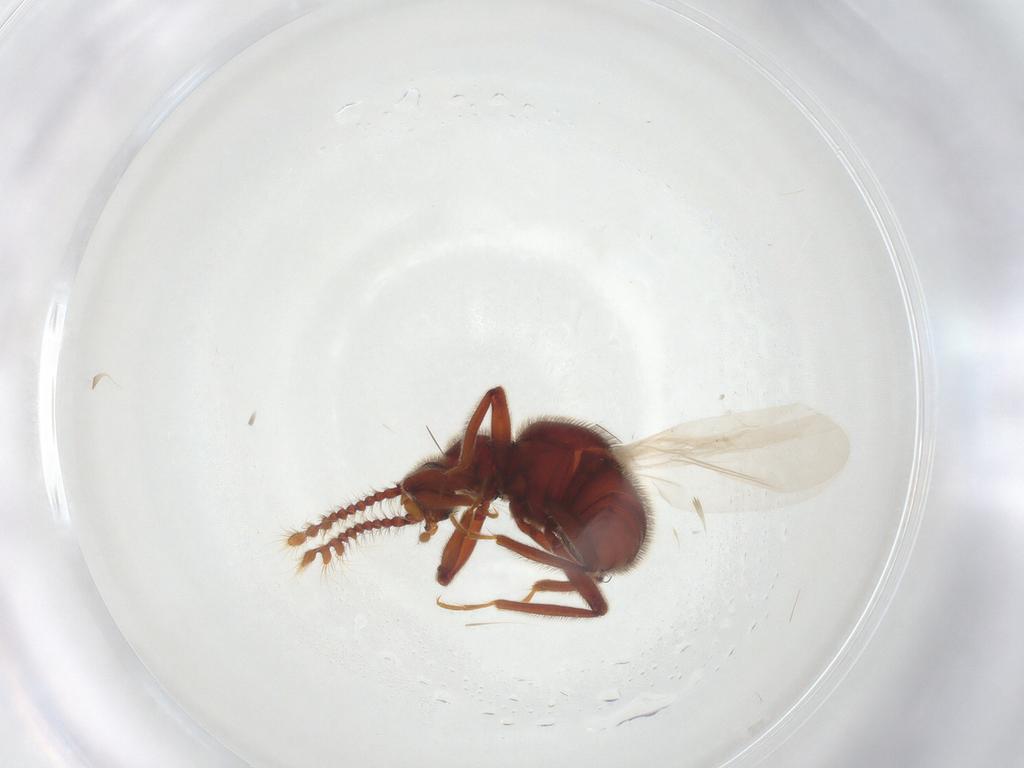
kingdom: Animalia
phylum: Arthropoda
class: Insecta
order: Coleoptera
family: Staphylinidae
